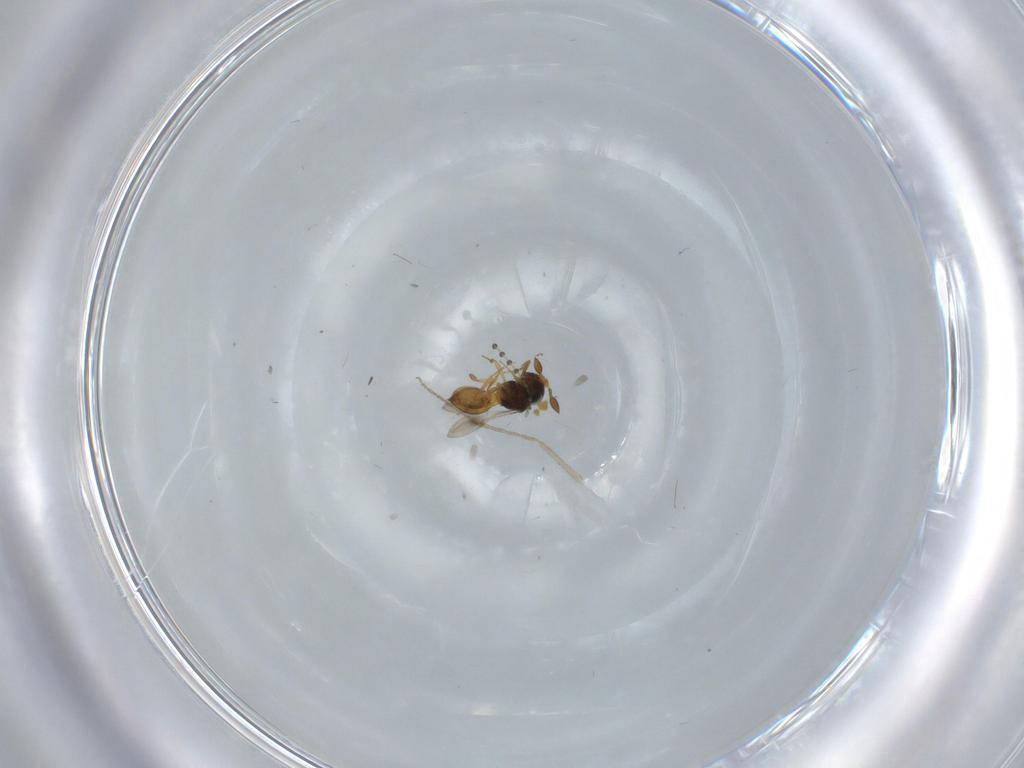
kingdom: Animalia
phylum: Arthropoda
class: Insecta
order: Hymenoptera
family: Scelionidae
